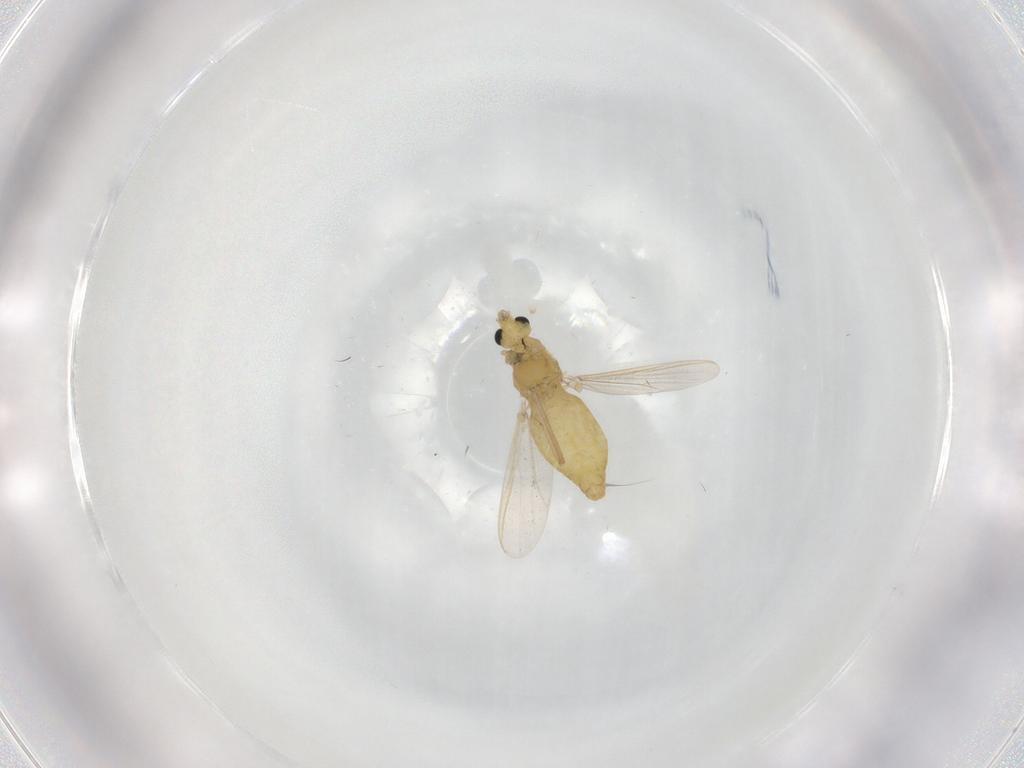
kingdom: Animalia
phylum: Arthropoda
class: Insecta
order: Diptera
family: Chironomidae
